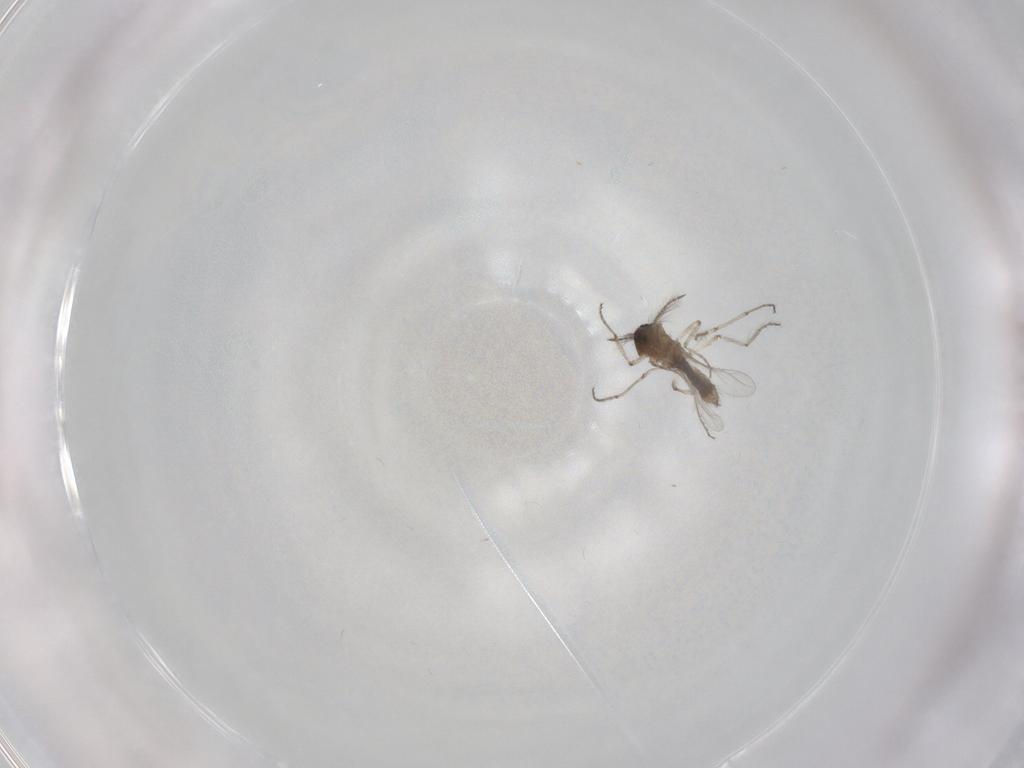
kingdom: Animalia
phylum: Arthropoda
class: Insecta
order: Diptera
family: Ceratopogonidae
